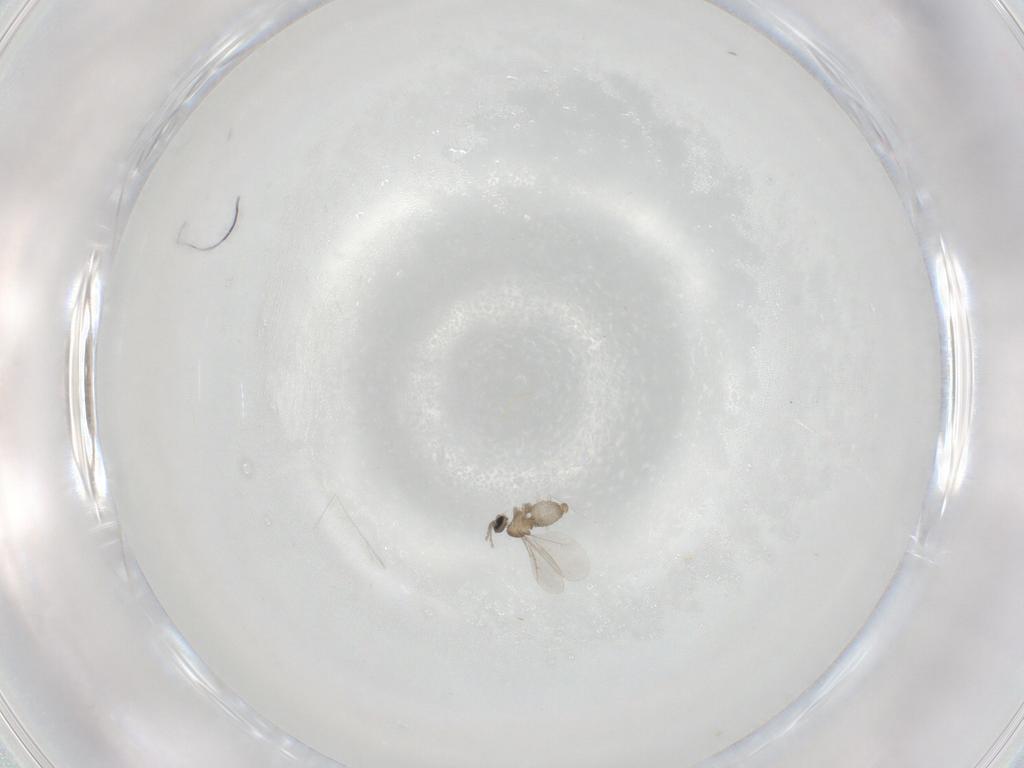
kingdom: Animalia
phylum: Arthropoda
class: Insecta
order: Diptera
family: Cecidomyiidae
